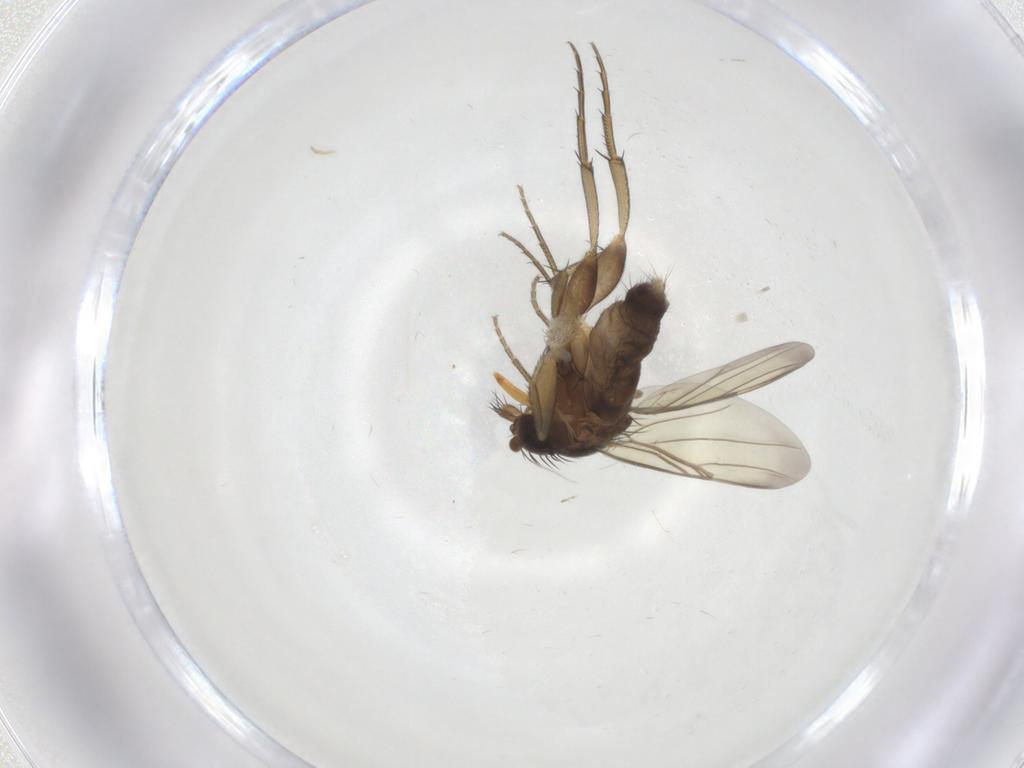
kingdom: Animalia
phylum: Arthropoda
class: Insecta
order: Diptera
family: Phoridae
